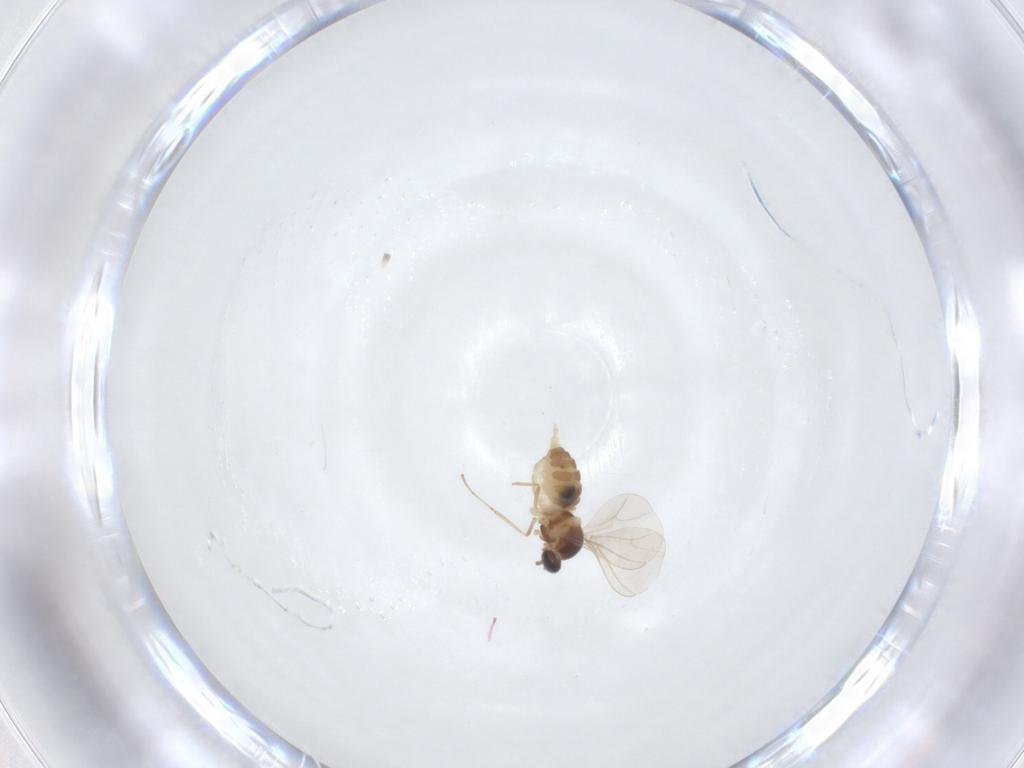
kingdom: Animalia
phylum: Arthropoda
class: Insecta
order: Diptera
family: Cecidomyiidae
